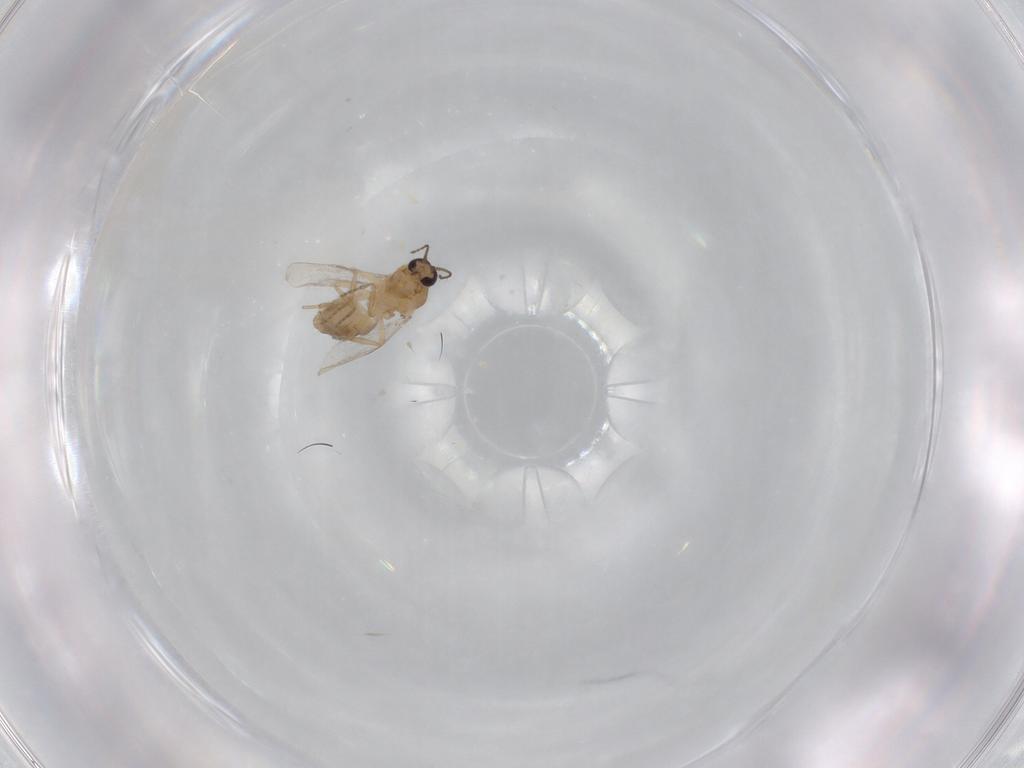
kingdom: Animalia
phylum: Arthropoda
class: Insecta
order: Diptera
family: Ceratopogonidae
